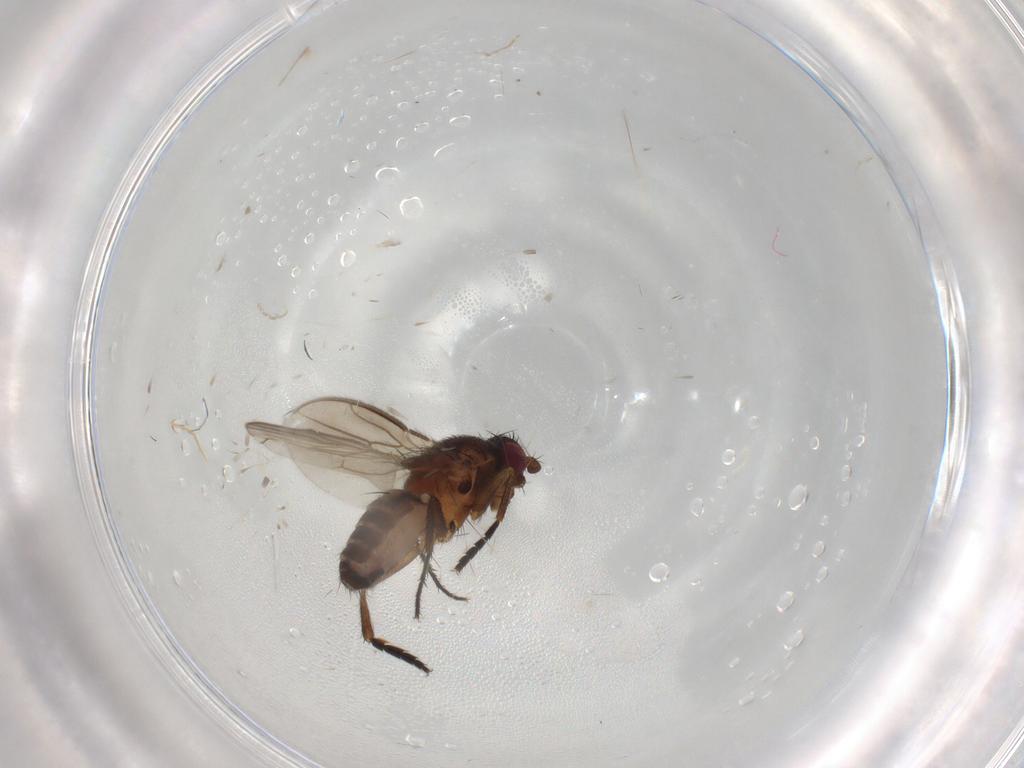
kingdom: Animalia
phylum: Arthropoda
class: Insecta
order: Diptera
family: Sphaeroceridae
